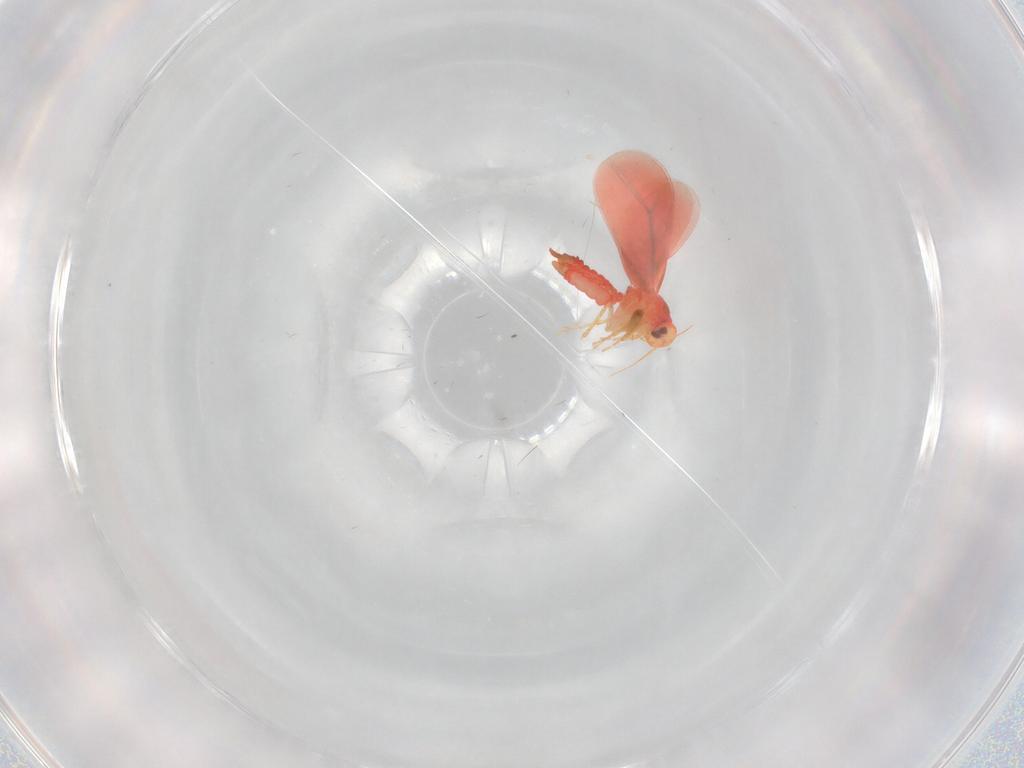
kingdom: Animalia
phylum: Arthropoda
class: Insecta
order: Hemiptera
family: Aleyrodidae
